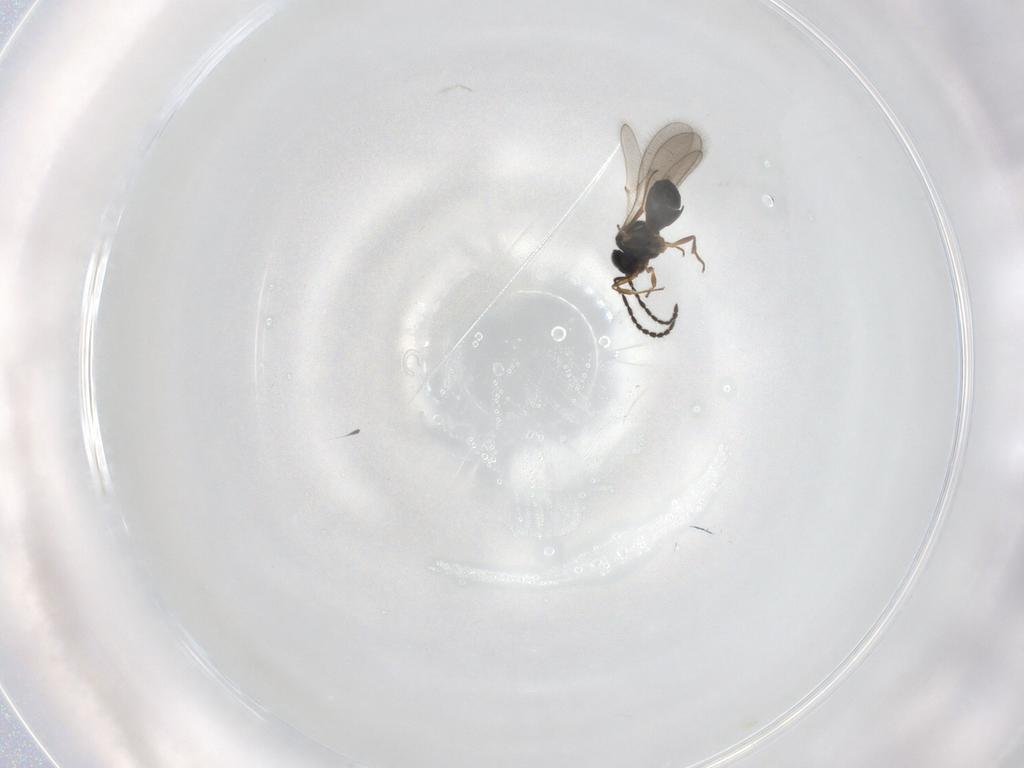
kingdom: Animalia
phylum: Arthropoda
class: Insecta
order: Hymenoptera
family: Scelionidae
